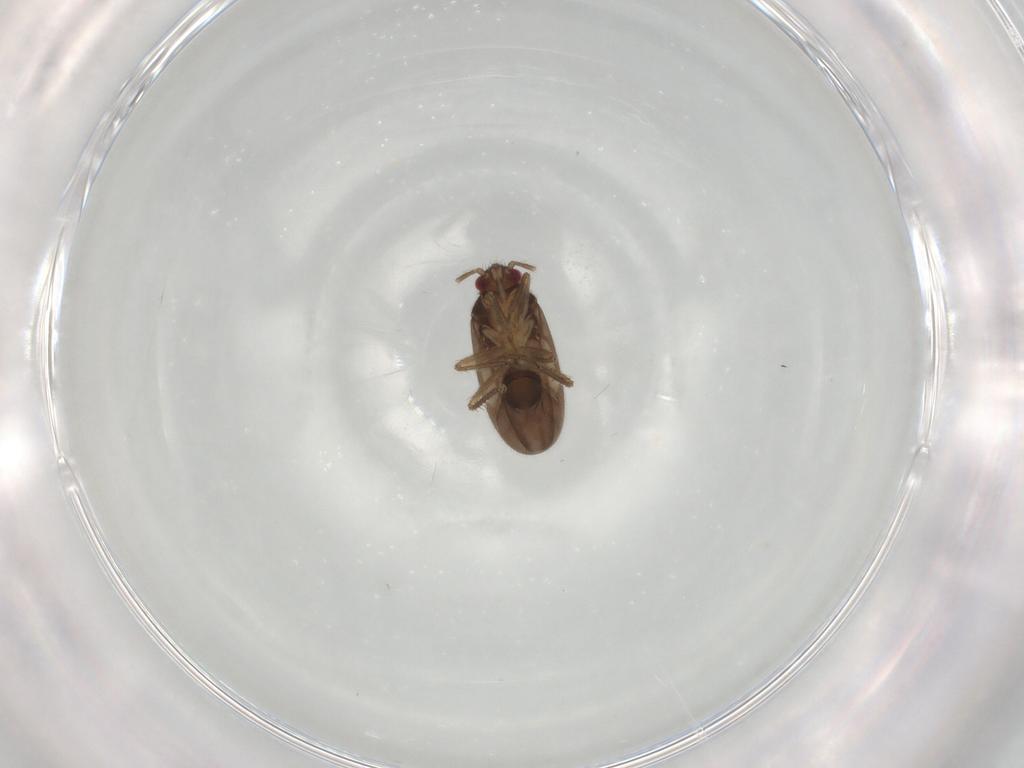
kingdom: Animalia
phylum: Arthropoda
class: Insecta
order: Hemiptera
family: Ceratocombidae
